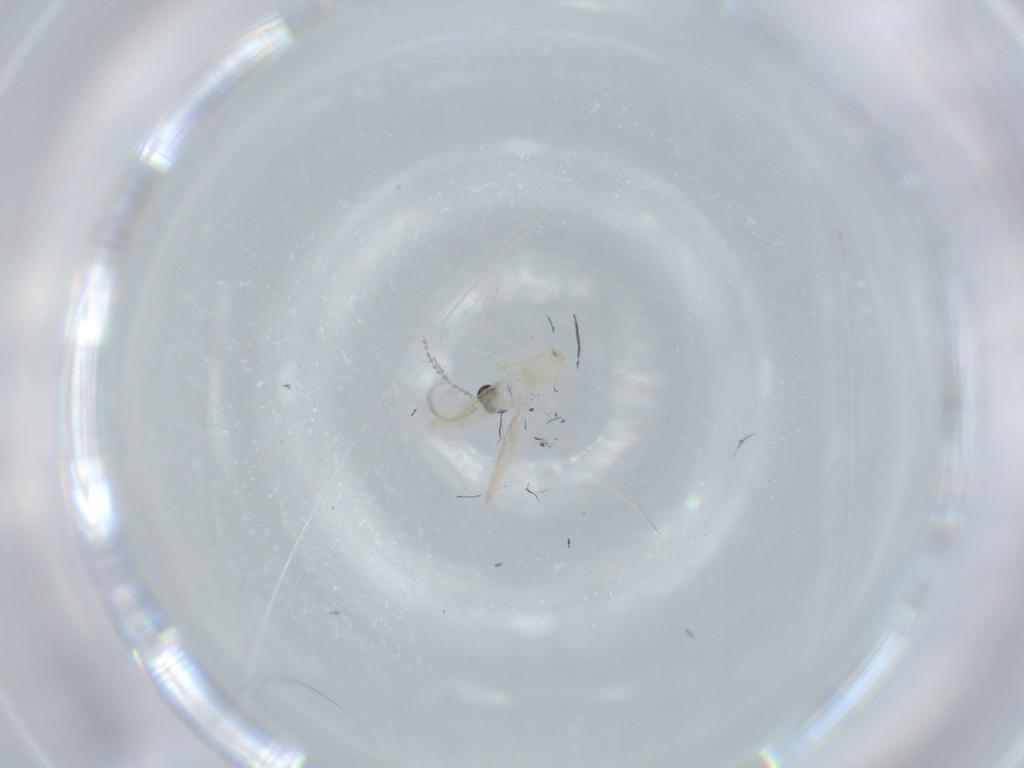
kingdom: Animalia
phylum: Arthropoda
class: Insecta
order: Diptera
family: Cecidomyiidae
